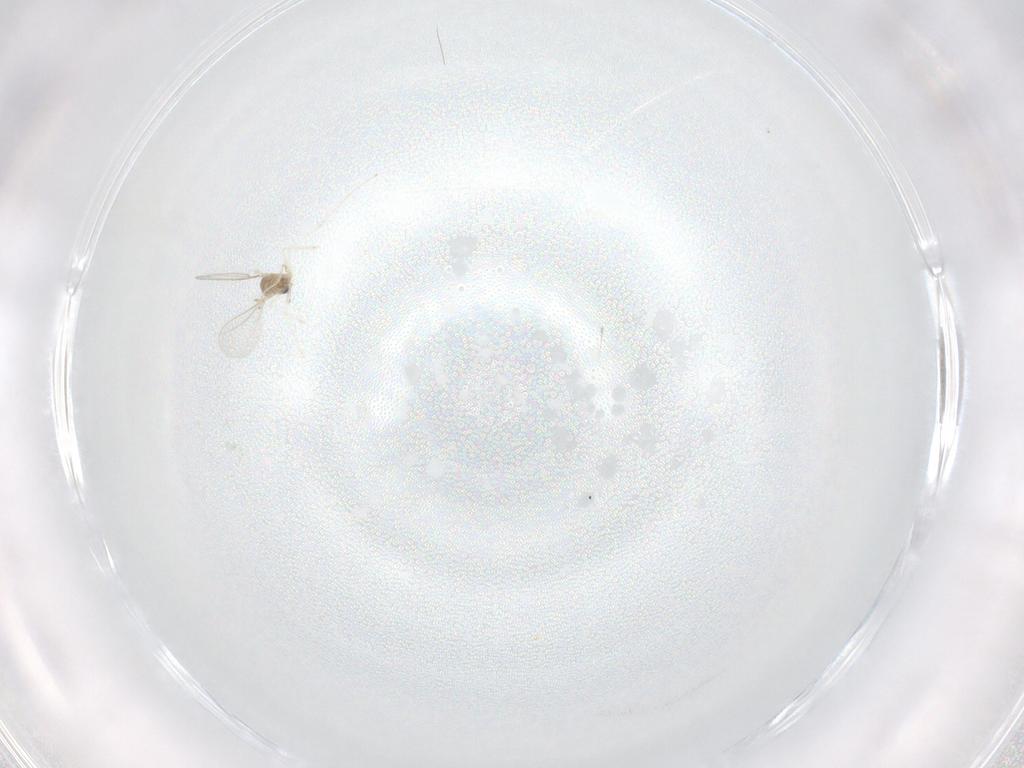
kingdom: Animalia
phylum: Arthropoda
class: Insecta
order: Diptera
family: Cecidomyiidae
